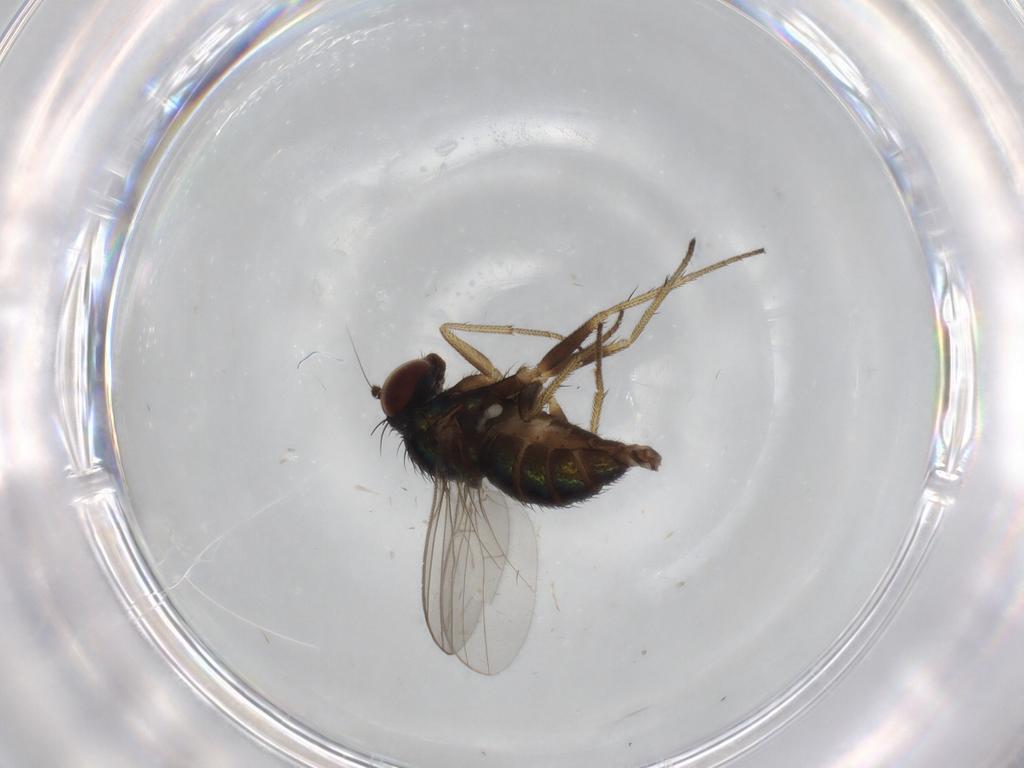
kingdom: Animalia
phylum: Arthropoda
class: Insecta
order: Diptera
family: Dolichopodidae
